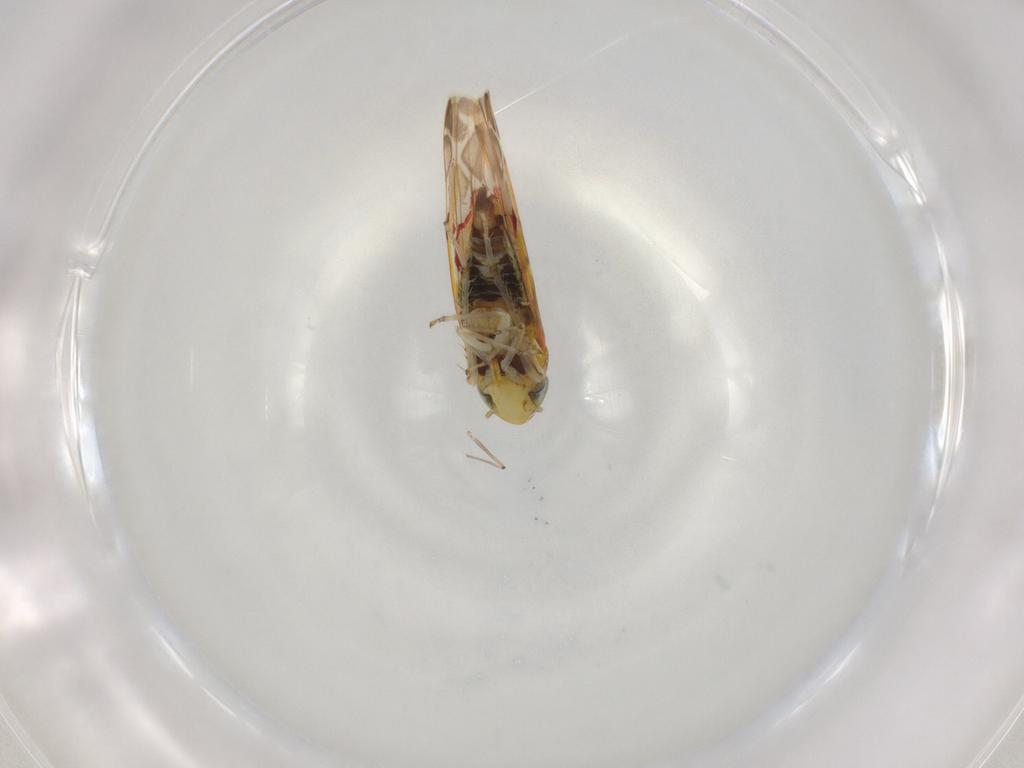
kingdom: Animalia
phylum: Arthropoda
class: Insecta
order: Hemiptera
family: Cicadellidae
